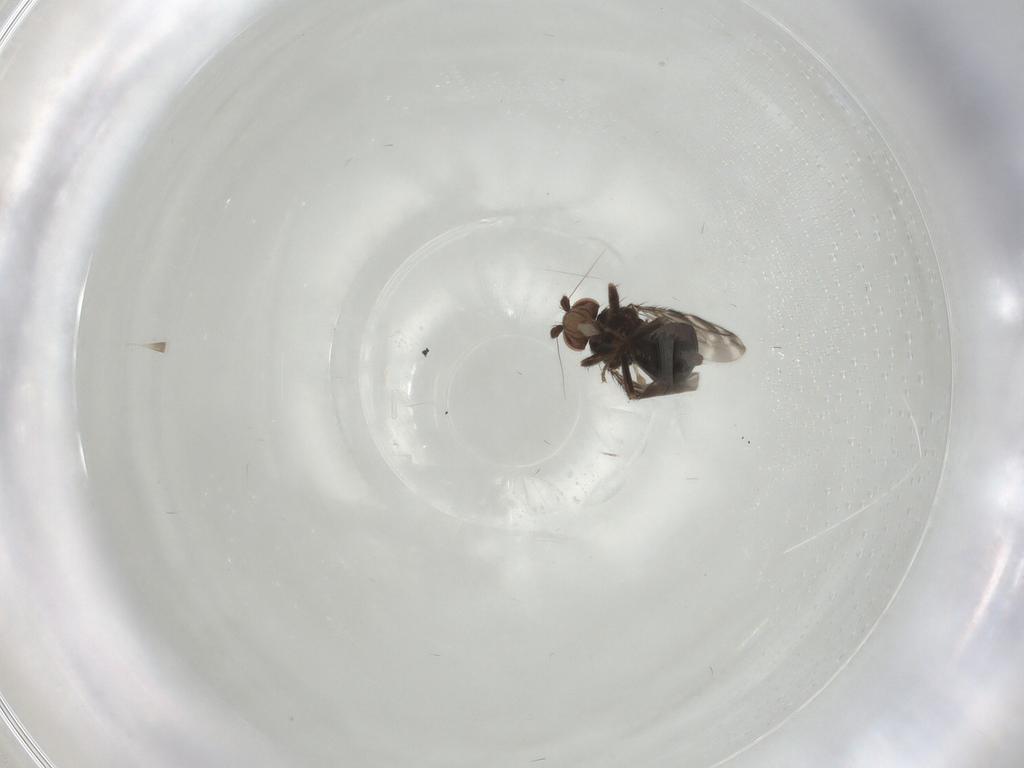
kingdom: Animalia
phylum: Arthropoda
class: Insecta
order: Diptera
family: Sphaeroceridae
